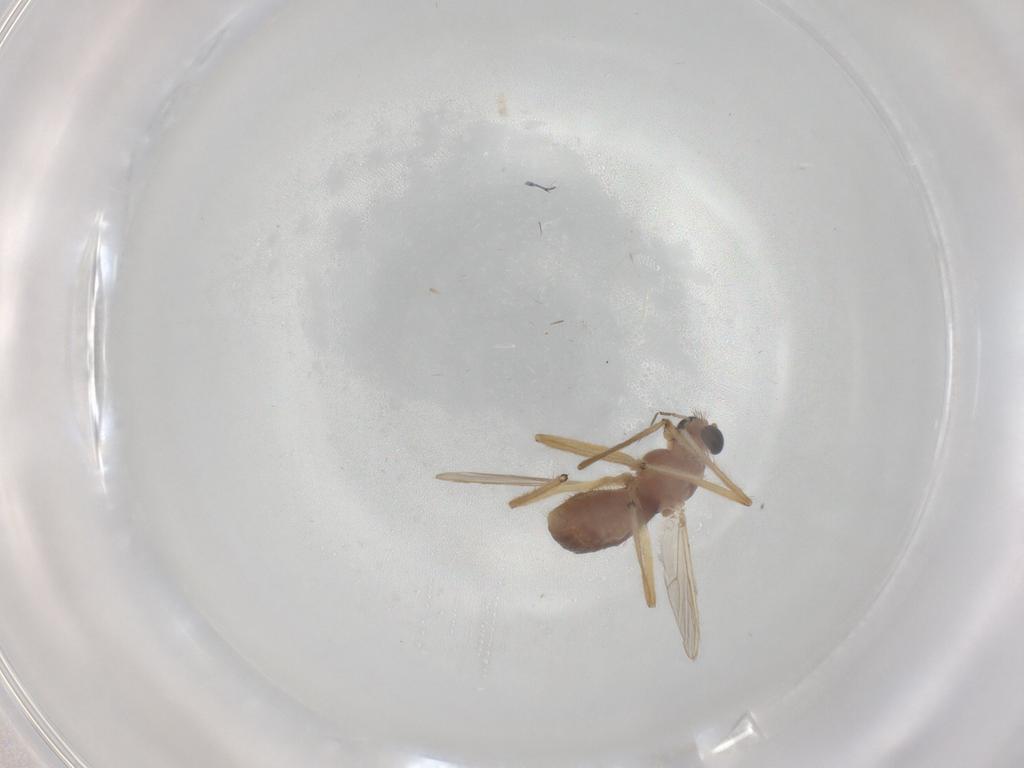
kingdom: Animalia
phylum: Arthropoda
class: Insecta
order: Diptera
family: Chironomidae
